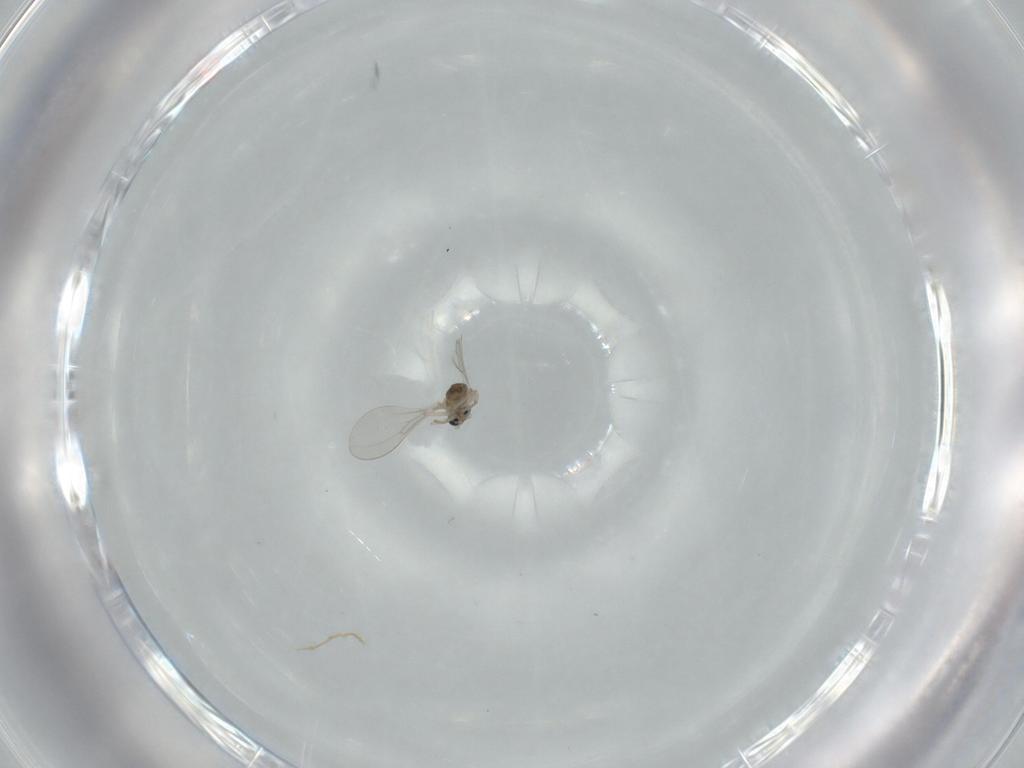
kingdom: Animalia
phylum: Arthropoda
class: Insecta
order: Diptera
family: Cecidomyiidae
